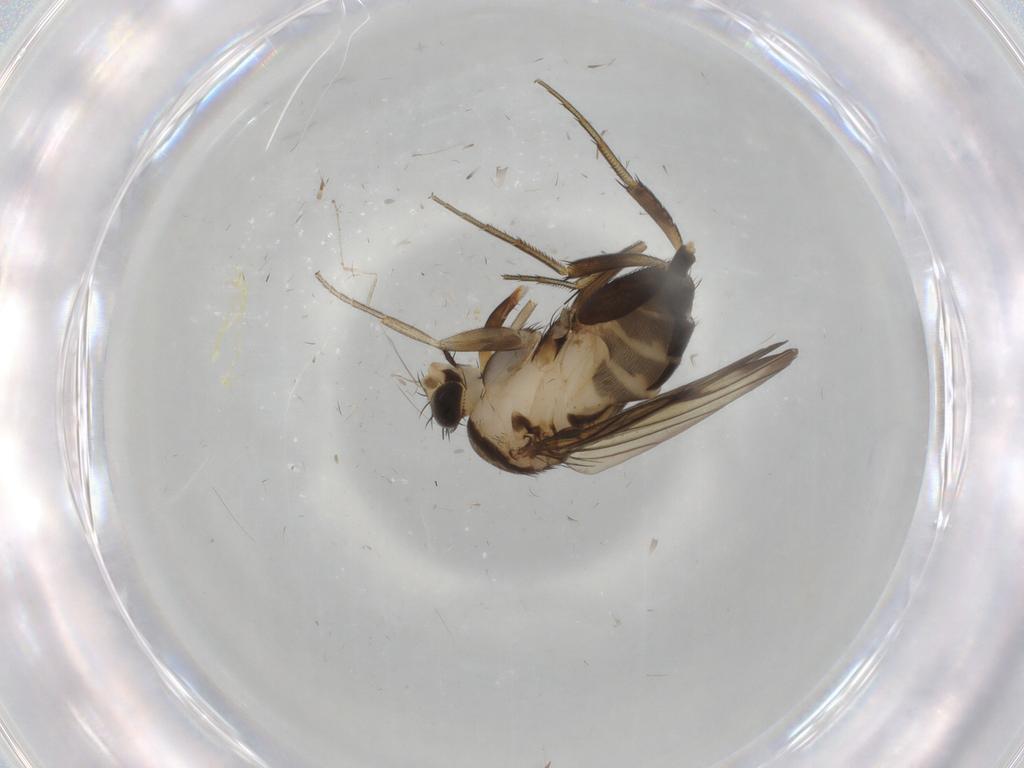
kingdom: Animalia
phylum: Arthropoda
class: Insecta
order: Diptera
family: Phoridae
